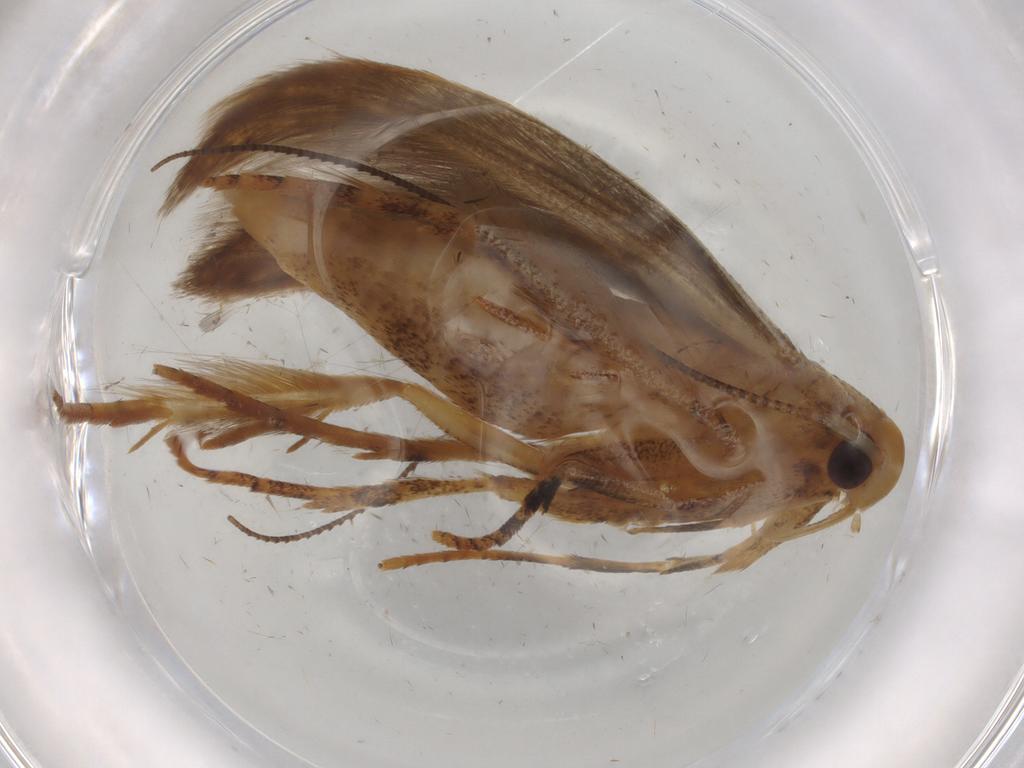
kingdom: Animalia
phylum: Arthropoda
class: Insecta
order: Lepidoptera
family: Erebidae
